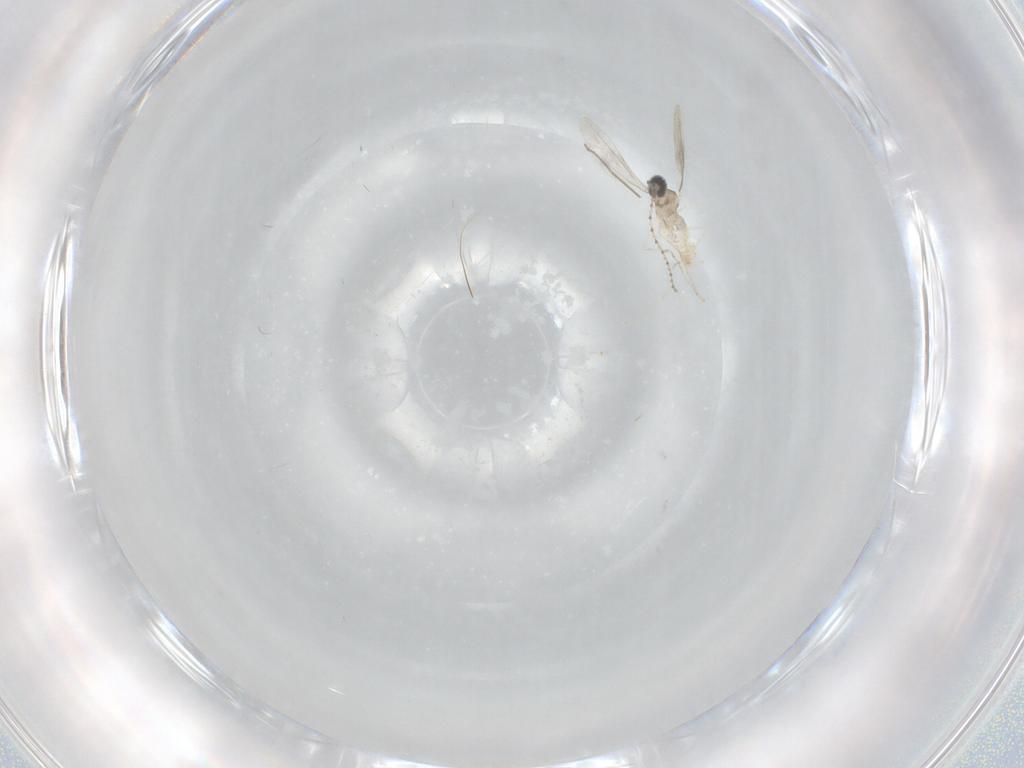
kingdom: Animalia
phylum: Arthropoda
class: Insecta
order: Diptera
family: Cecidomyiidae
